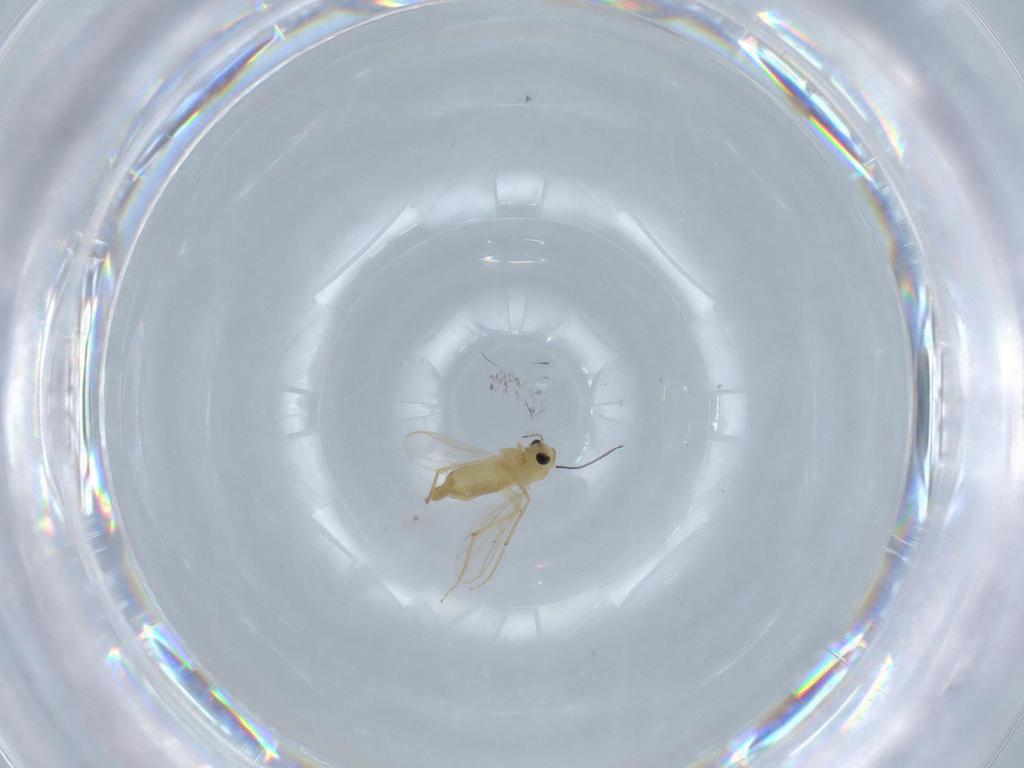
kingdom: Animalia
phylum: Arthropoda
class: Insecta
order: Diptera
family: Chironomidae
